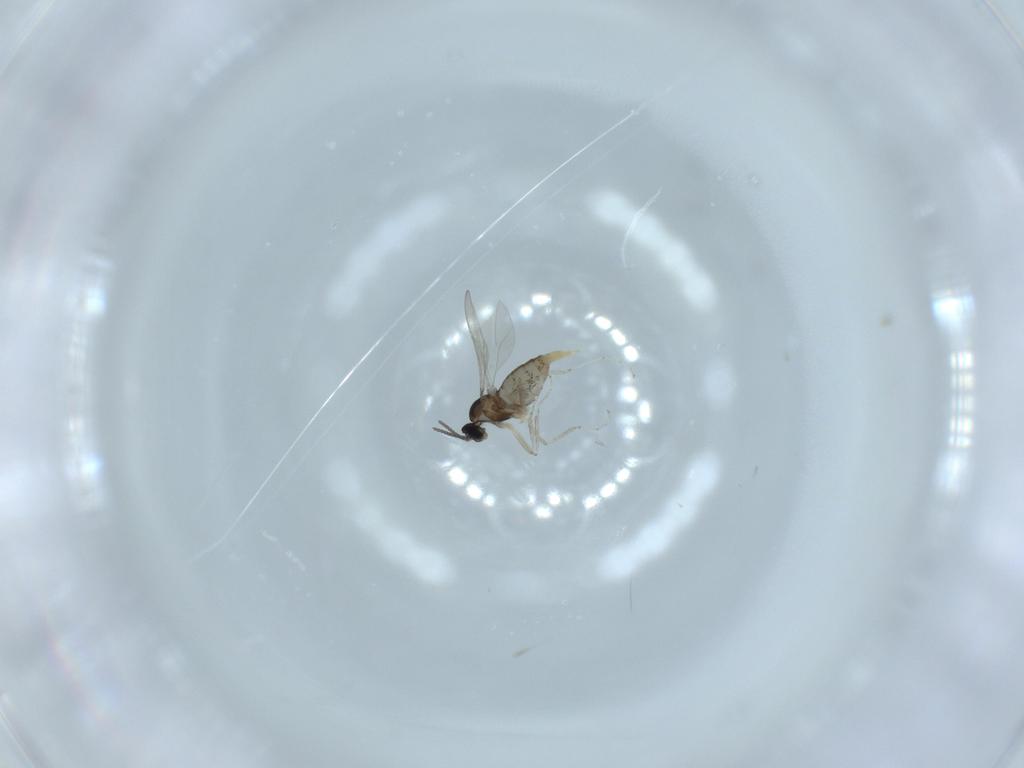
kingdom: Animalia
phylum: Arthropoda
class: Insecta
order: Diptera
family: Cecidomyiidae
